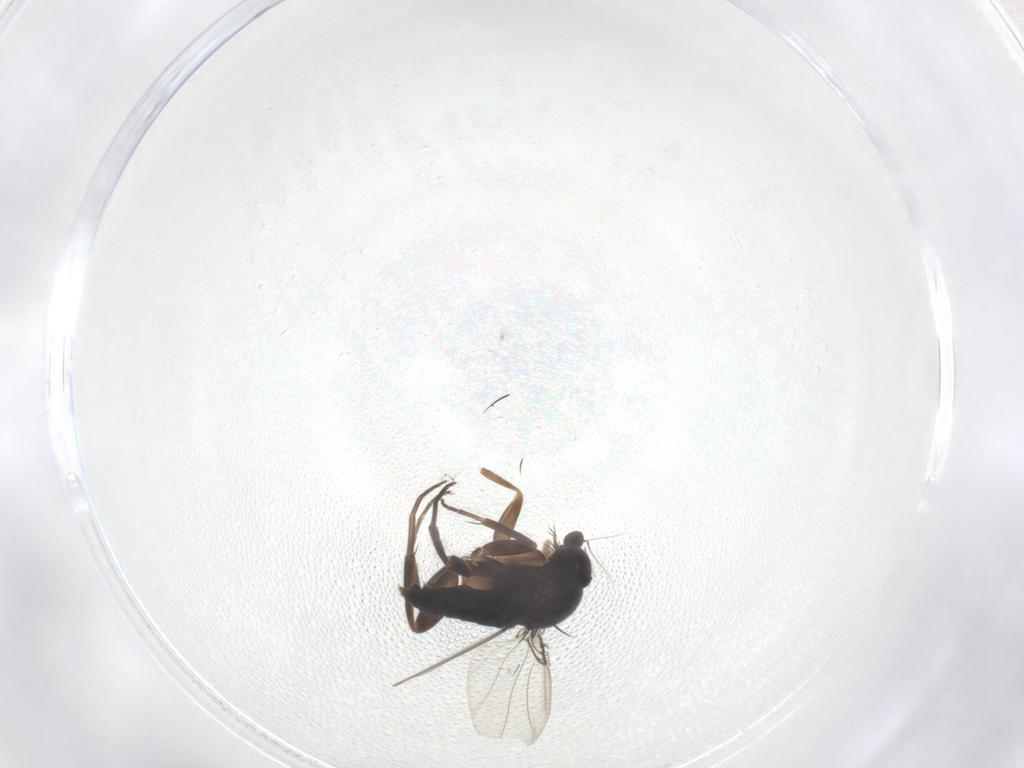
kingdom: Animalia
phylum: Arthropoda
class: Insecta
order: Diptera
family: Phoridae
